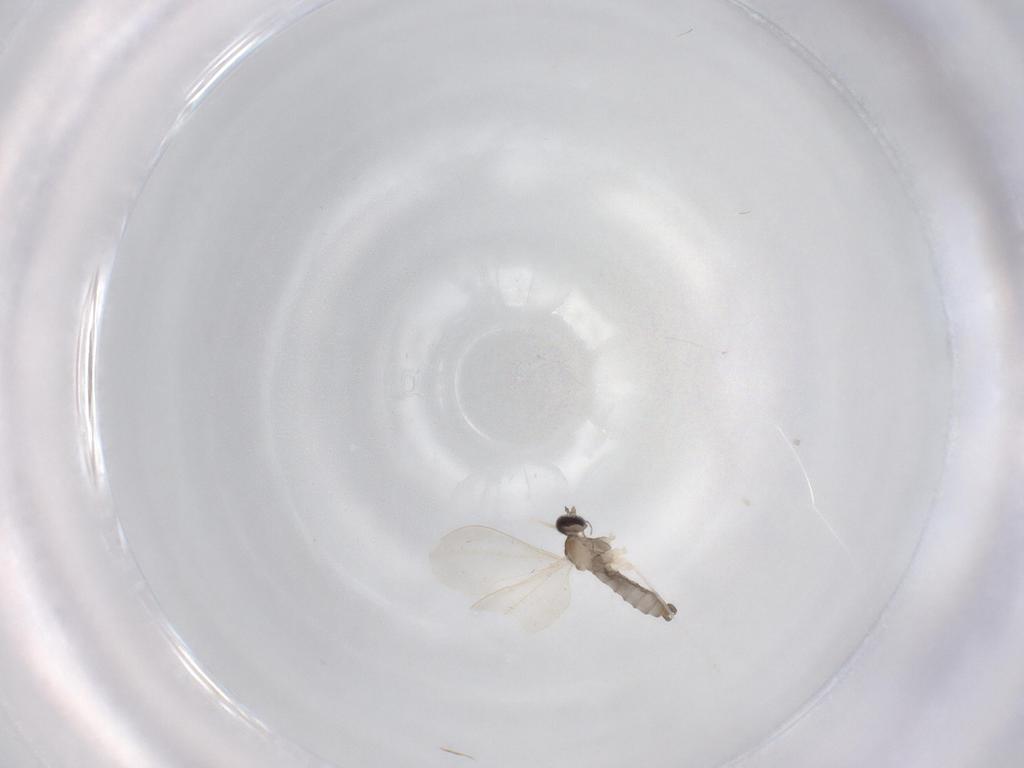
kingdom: Animalia
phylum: Arthropoda
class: Insecta
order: Diptera
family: Cecidomyiidae
